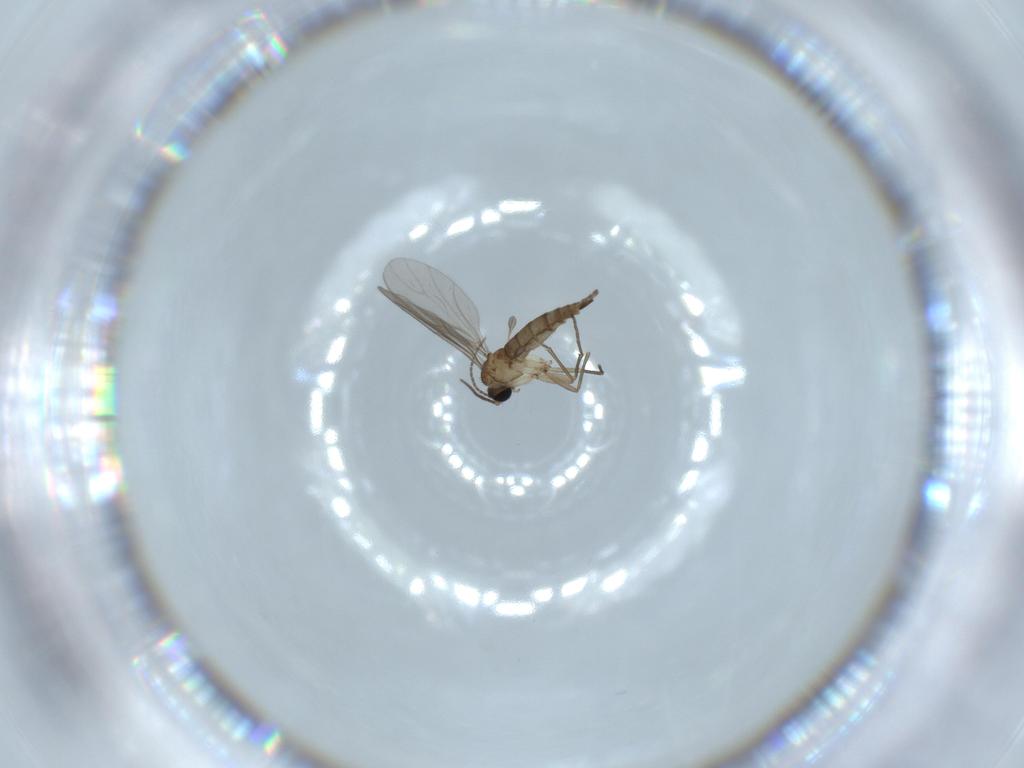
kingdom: Animalia
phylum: Arthropoda
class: Insecta
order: Diptera
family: Sciaridae
